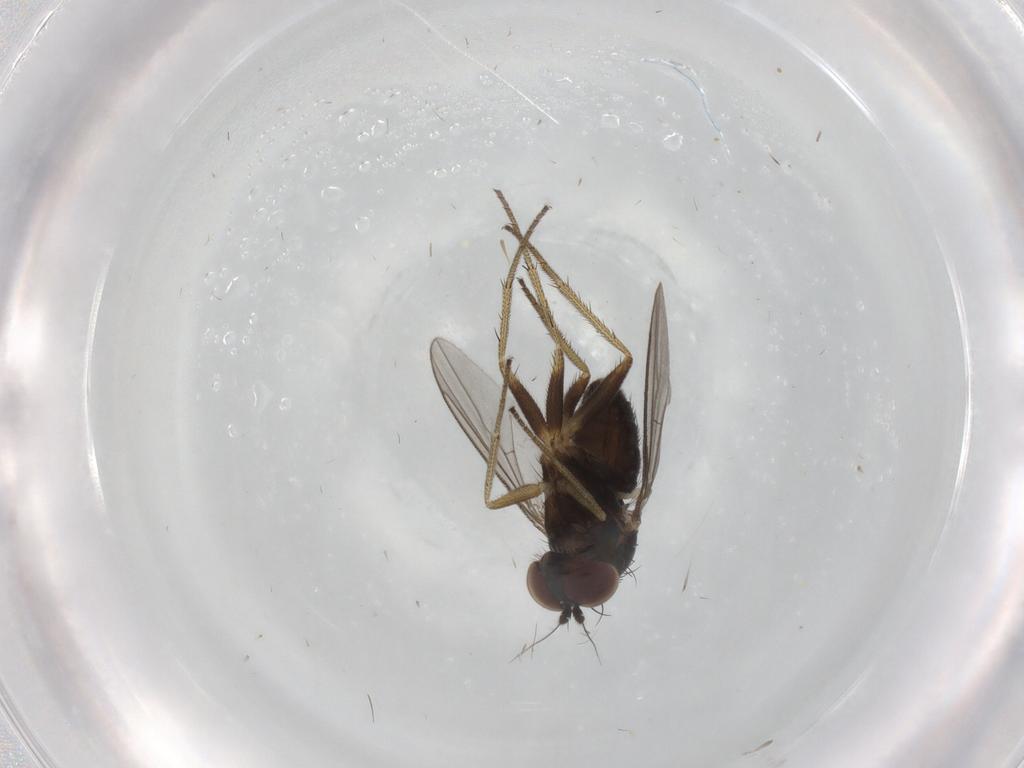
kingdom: Animalia
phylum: Arthropoda
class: Insecta
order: Diptera
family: Dolichopodidae
